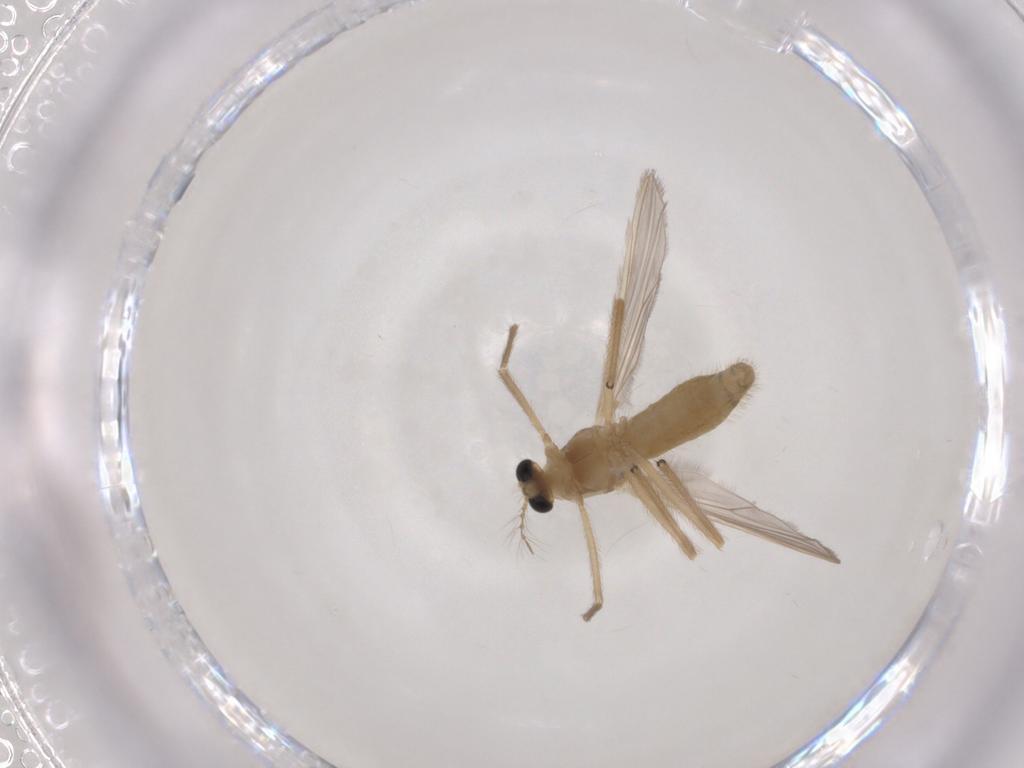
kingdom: Animalia
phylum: Arthropoda
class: Insecta
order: Diptera
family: Chironomidae
